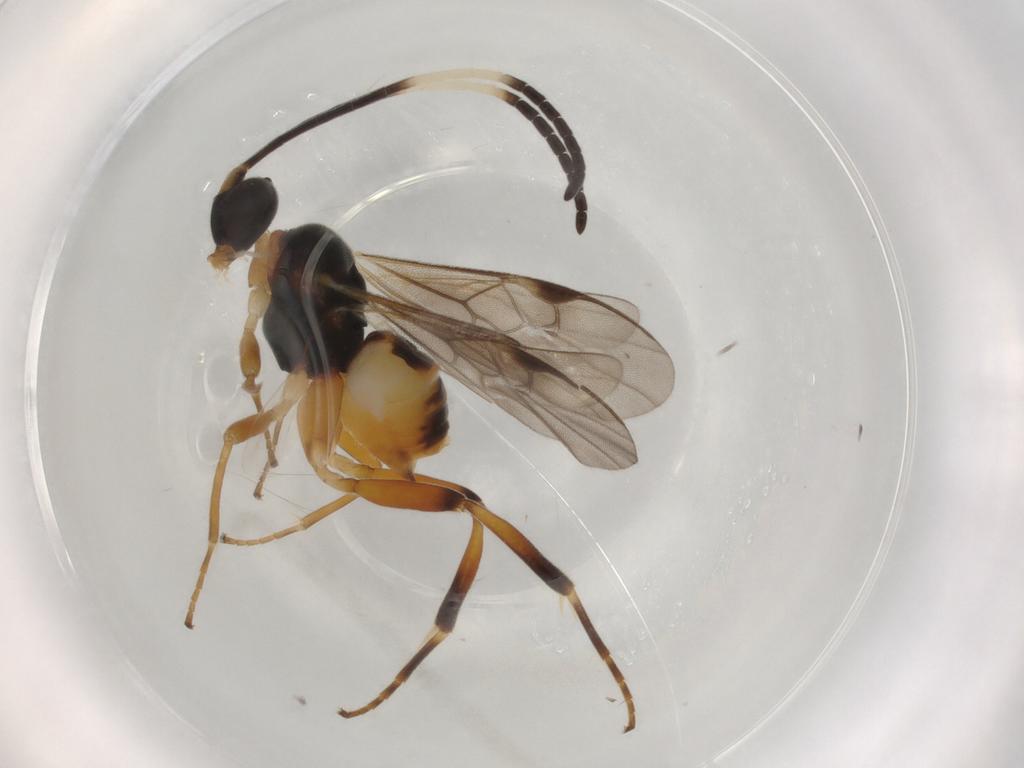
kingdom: Animalia
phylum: Arthropoda
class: Insecta
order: Hymenoptera
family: Braconidae
